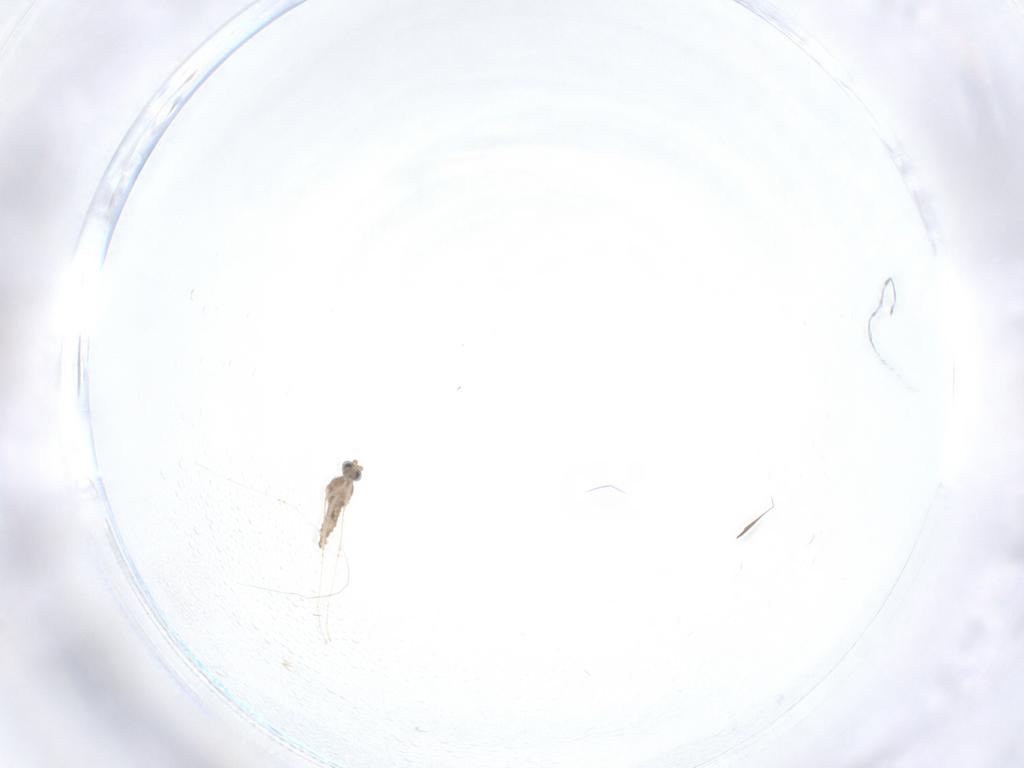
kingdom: Animalia
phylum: Arthropoda
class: Insecta
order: Diptera
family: Cecidomyiidae
